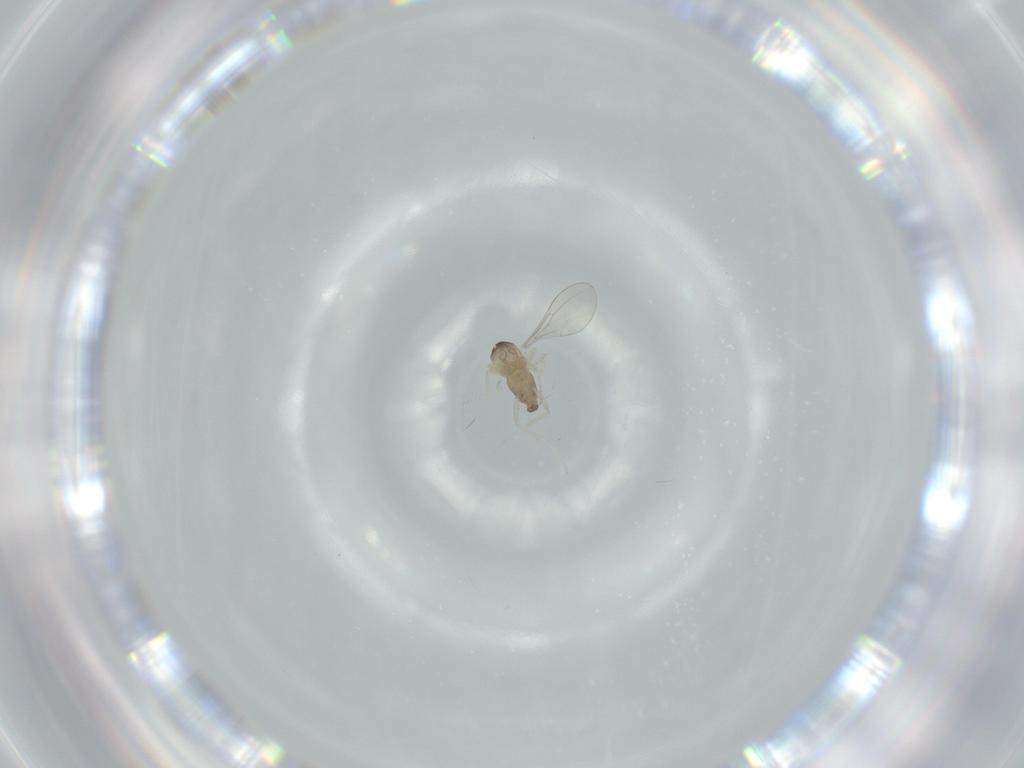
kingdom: Animalia
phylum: Arthropoda
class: Insecta
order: Diptera
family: Cecidomyiidae
